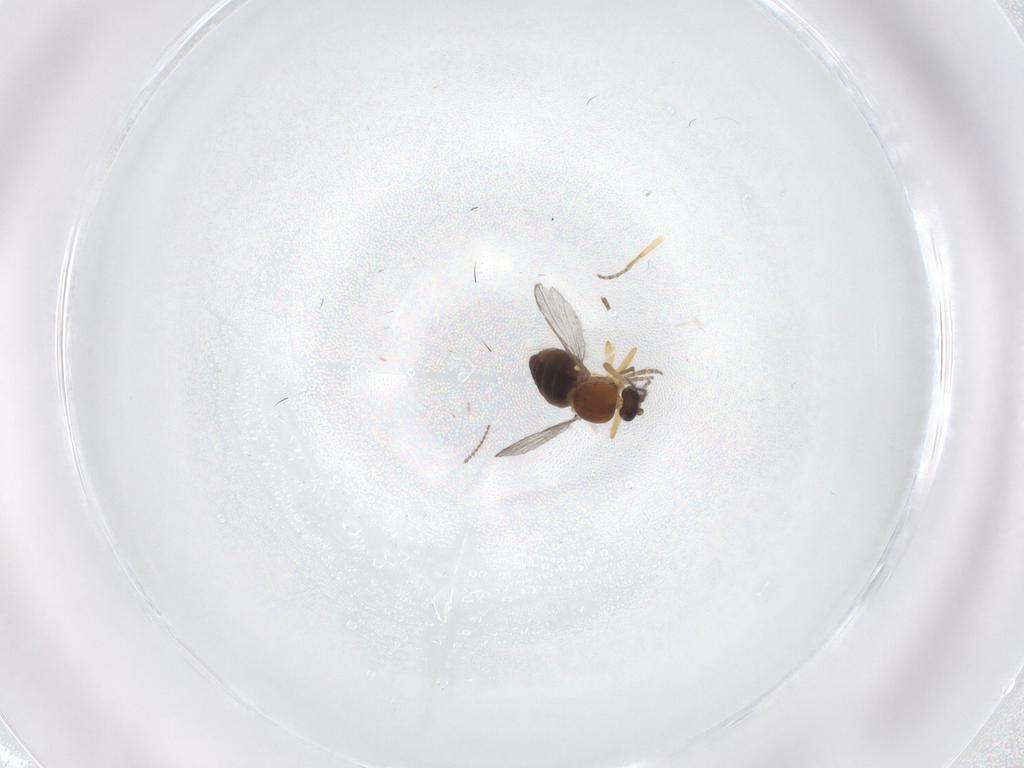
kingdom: Animalia
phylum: Arthropoda
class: Insecta
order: Diptera
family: Ceratopogonidae
